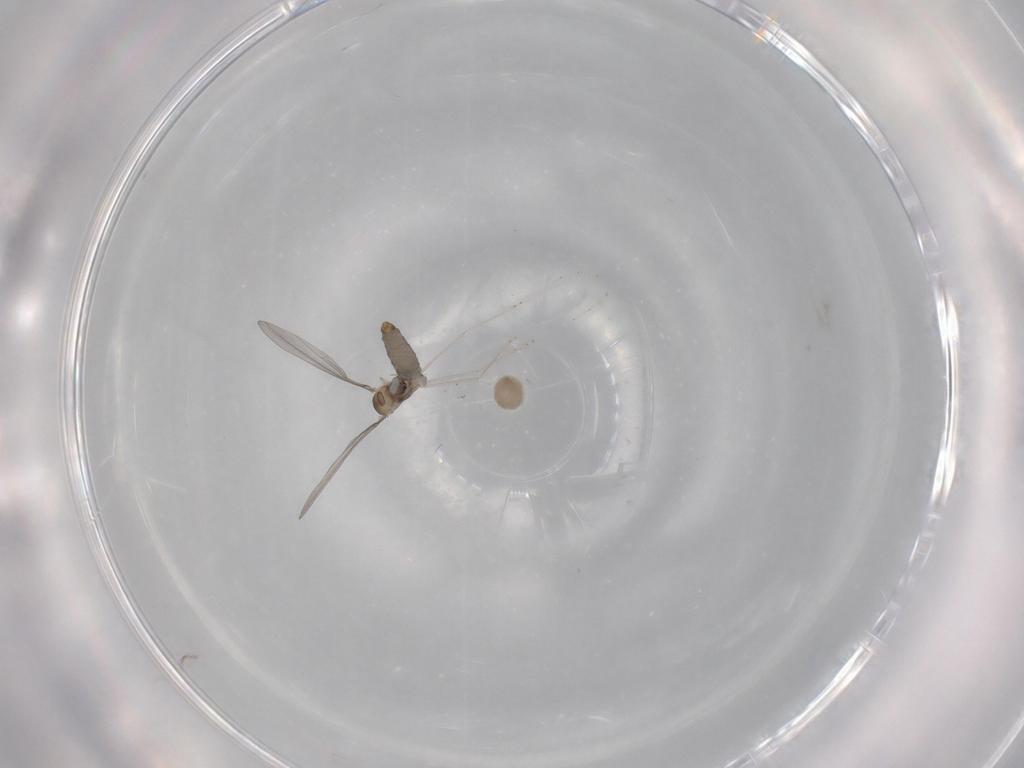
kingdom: Animalia
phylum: Arthropoda
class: Insecta
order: Diptera
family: Cecidomyiidae
